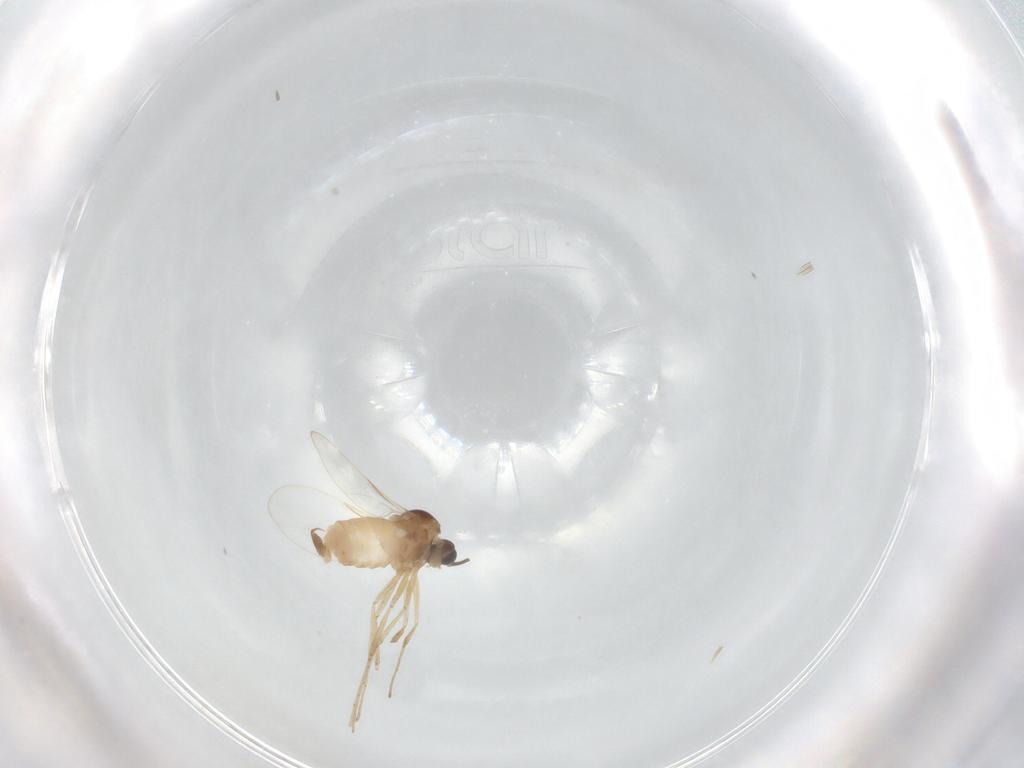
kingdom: Animalia
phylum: Arthropoda
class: Insecta
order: Diptera
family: Cecidomyiidae
